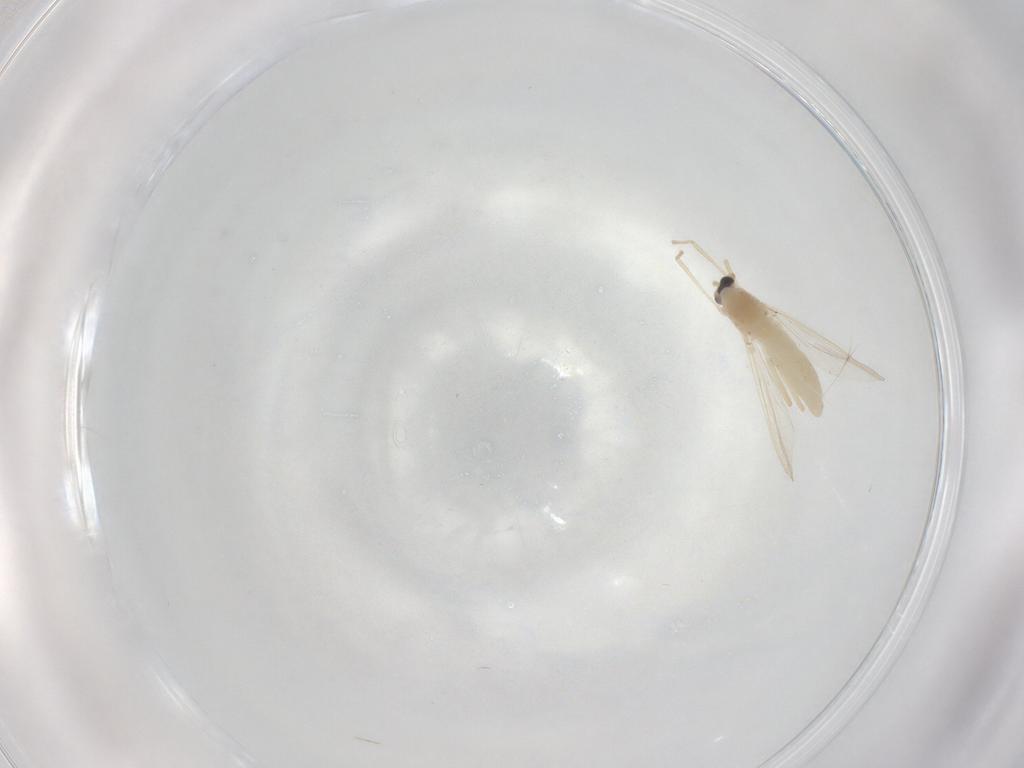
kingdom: Animalia
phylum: Arthropoda
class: Insecta
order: Diptera
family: Chironomidae
